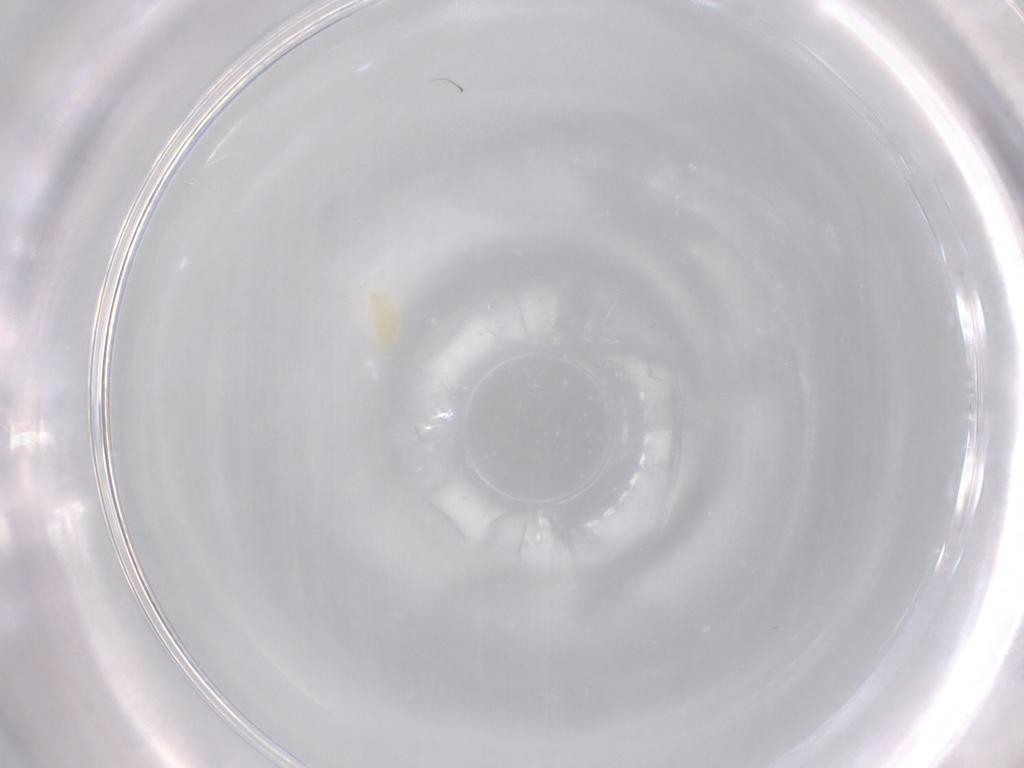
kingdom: Animalia
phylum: Arthropoda
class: Arachnida
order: Trombidiformes
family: Tetranychidae
